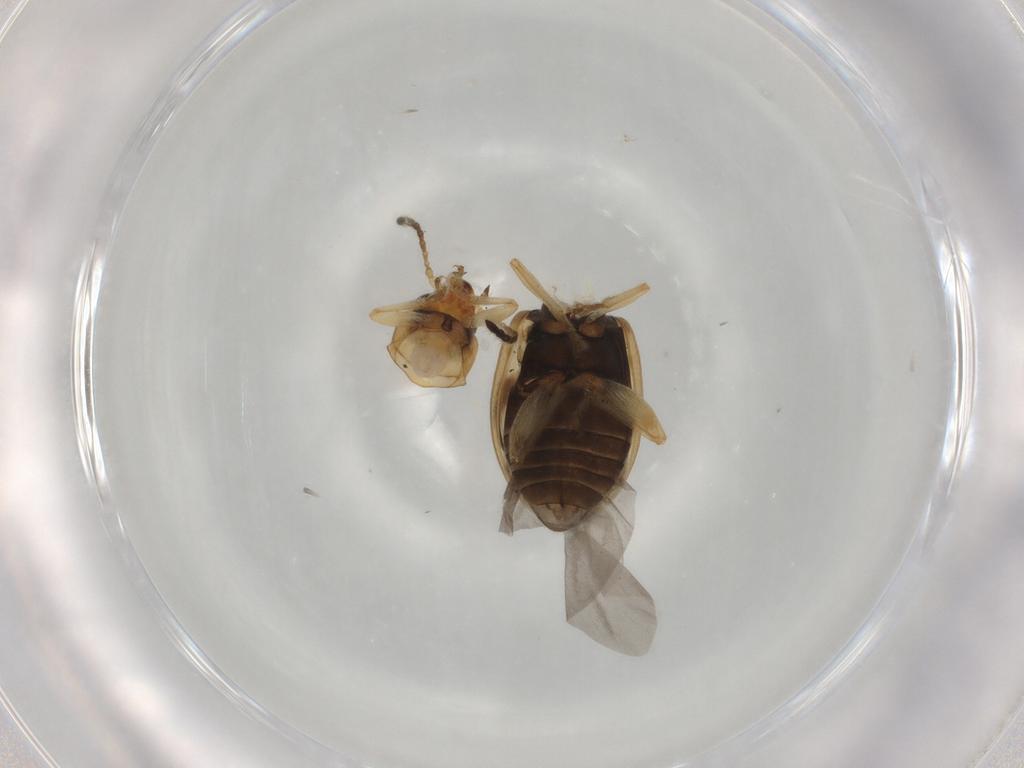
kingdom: Animalia
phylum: Arthropoda
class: Insecta
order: Coleoptera
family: Chrysomelidae
